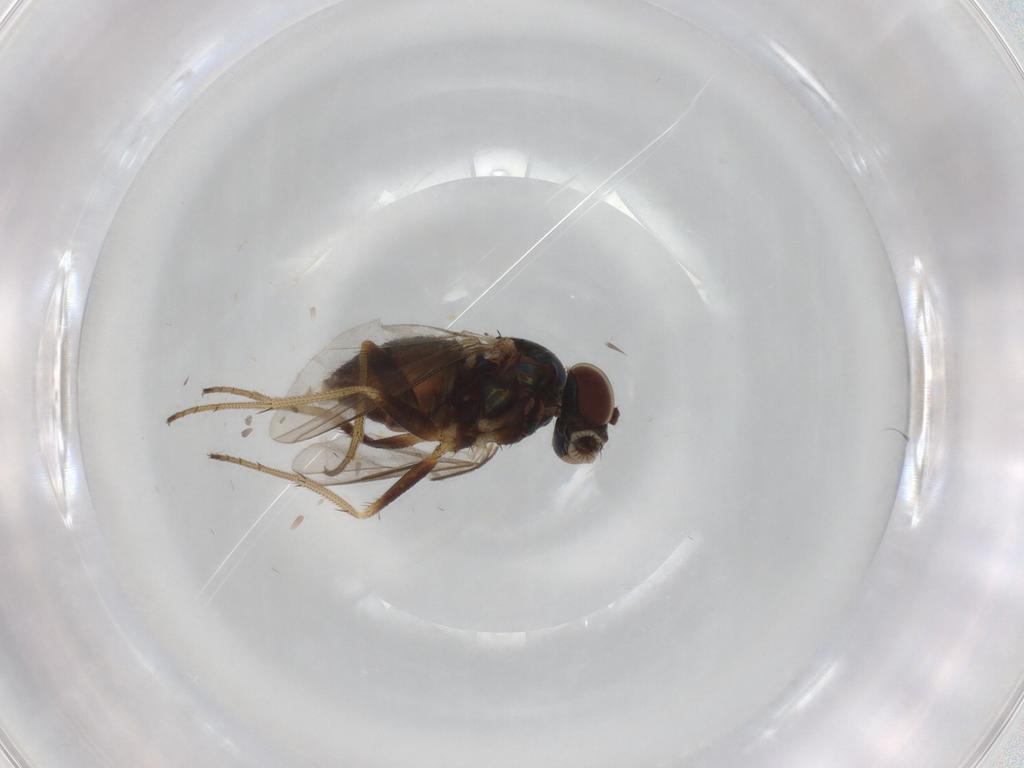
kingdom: Animalia
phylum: Arthropoda
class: Insecta
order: Diptera
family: Dolichopodidae
